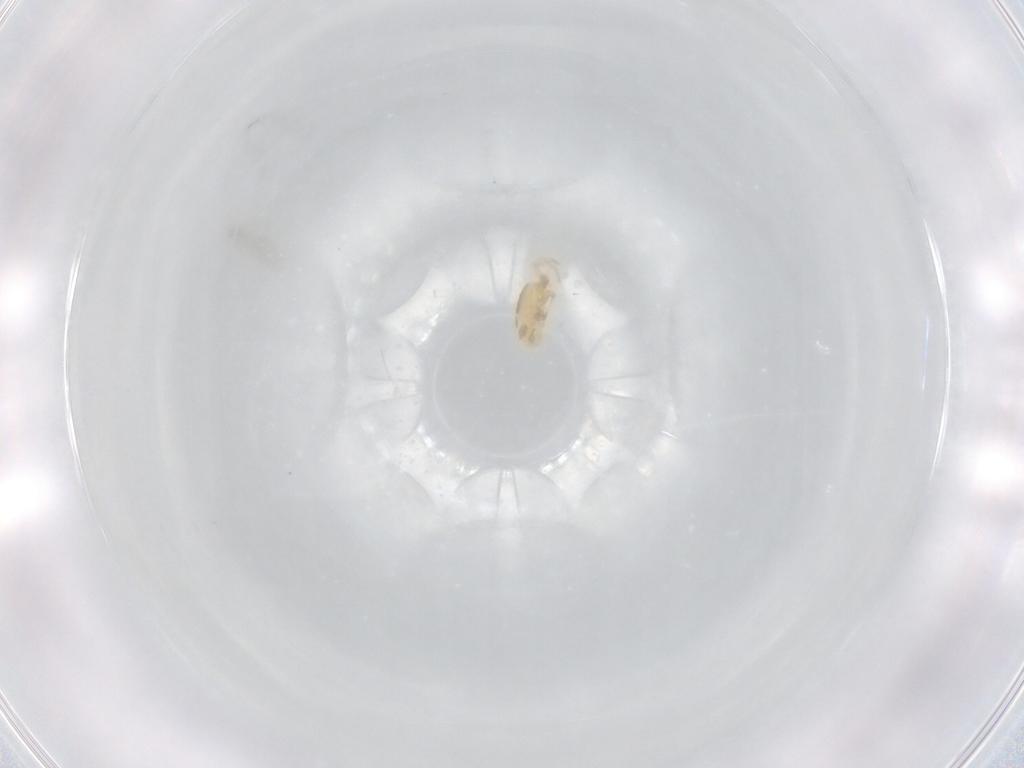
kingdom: Animalia
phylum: Arthropoda
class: Arachnida
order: Mesostigmata
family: Parasitidae
